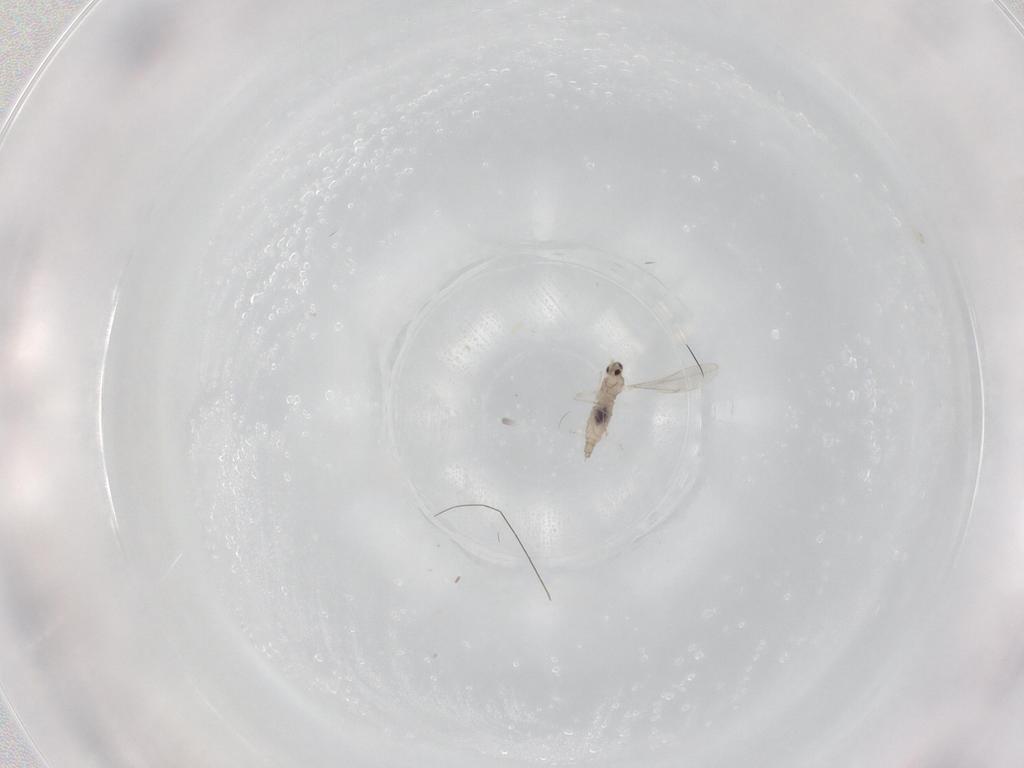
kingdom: Animalia
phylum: Arthropoda
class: Insecta
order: Diptera
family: Cecidomyiidae
